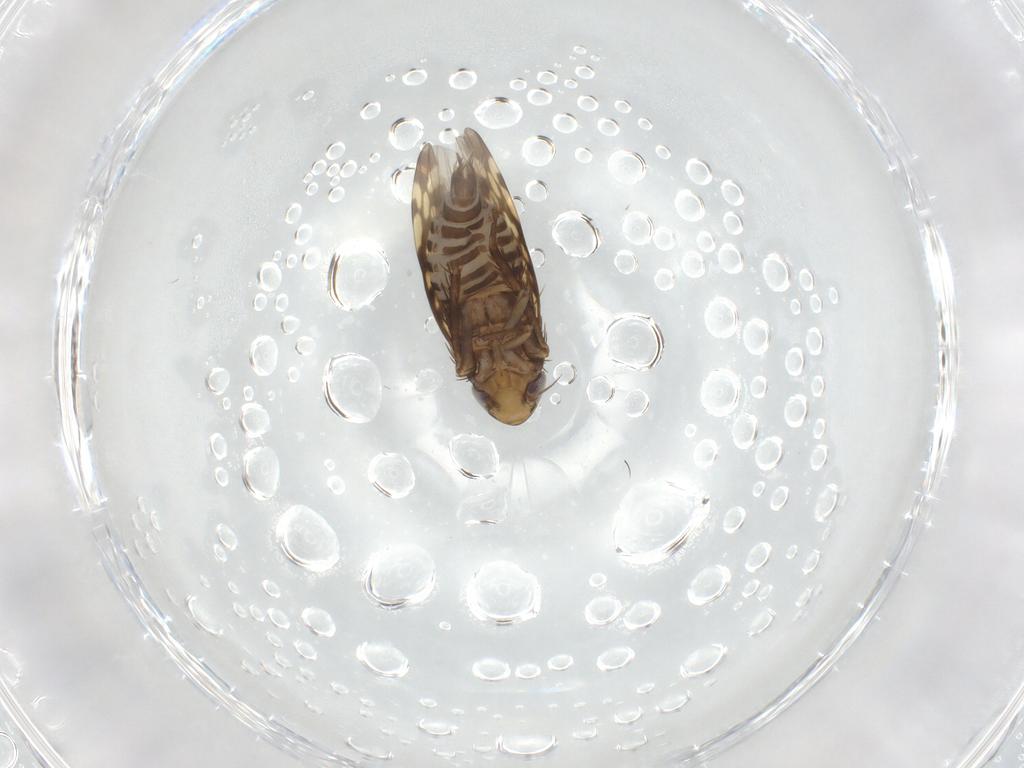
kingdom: Animalia
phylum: Arthropoda
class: Insecta
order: Hemiptera
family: Cicadellidae
